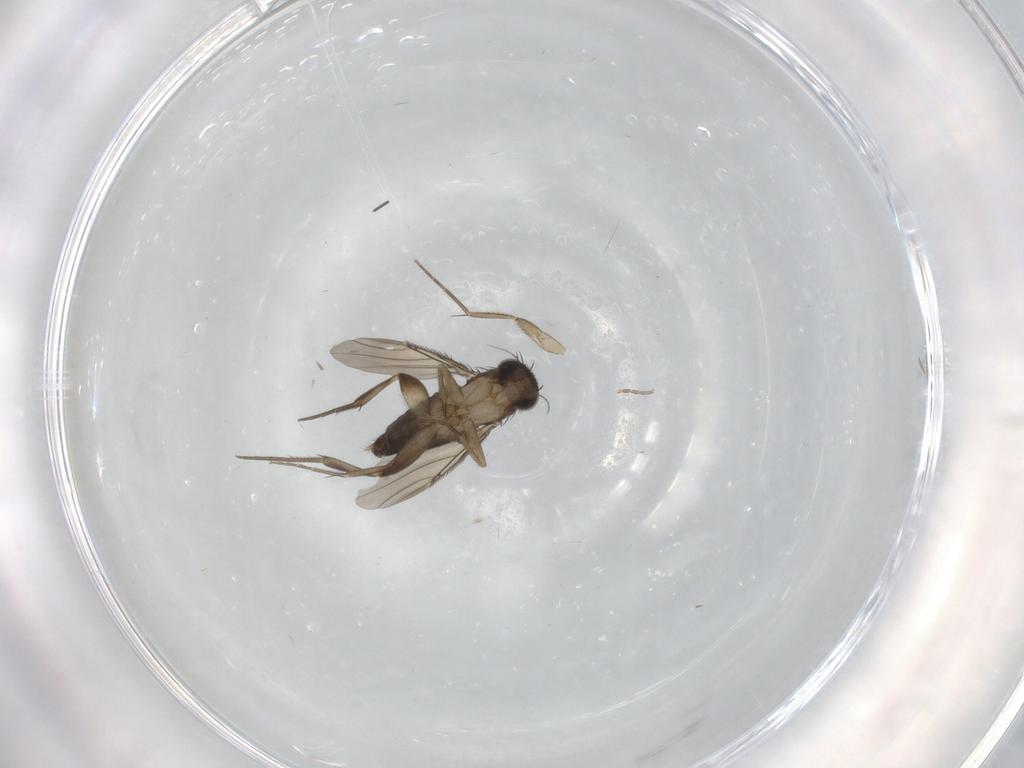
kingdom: Animalia
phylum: Arthropoda
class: Insecta
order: Diptera
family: Phoridae
